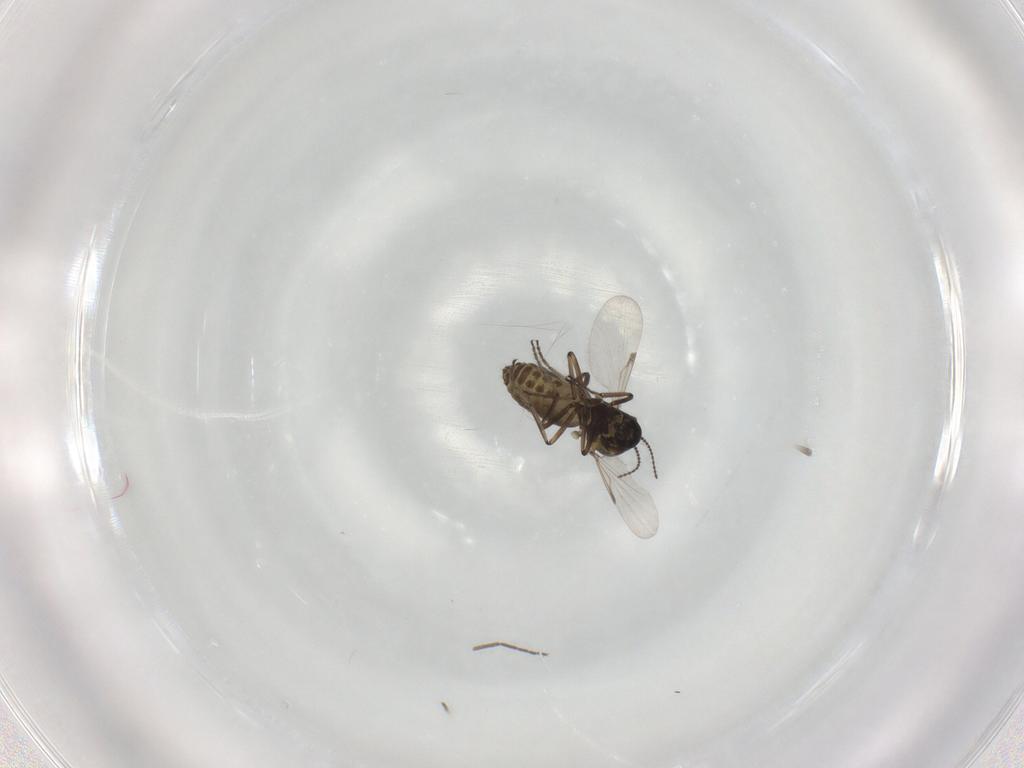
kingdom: Animalia
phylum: Arthropoda
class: Insecta
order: Diptera
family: Ceratopogonidae
